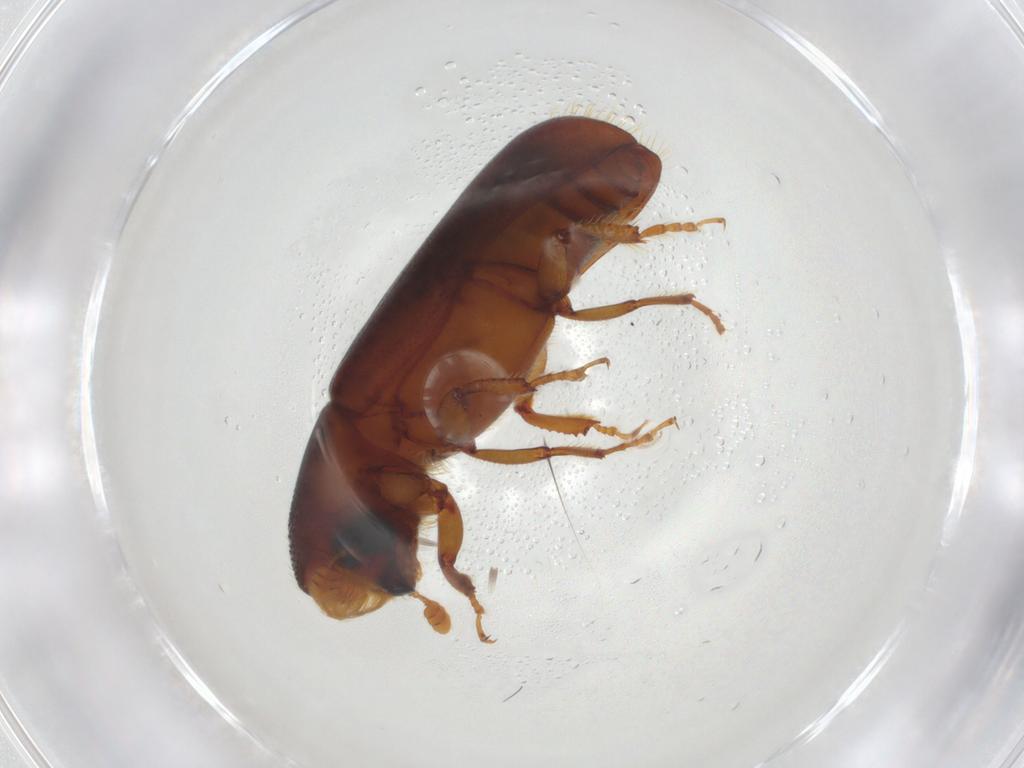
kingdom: Animalia
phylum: Arthropoda
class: Insecta
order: Coleoptera
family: Curculionidae
